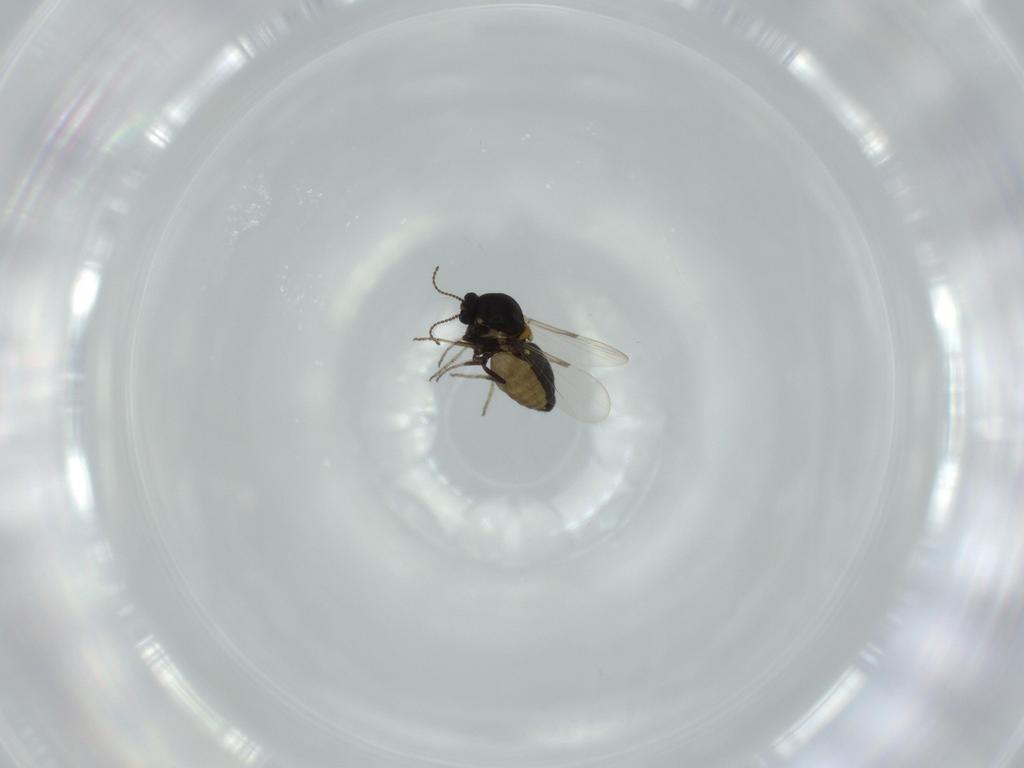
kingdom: Animalia
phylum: Arthropoda
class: Insecta
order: Diptera
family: Ceratopogonidae
